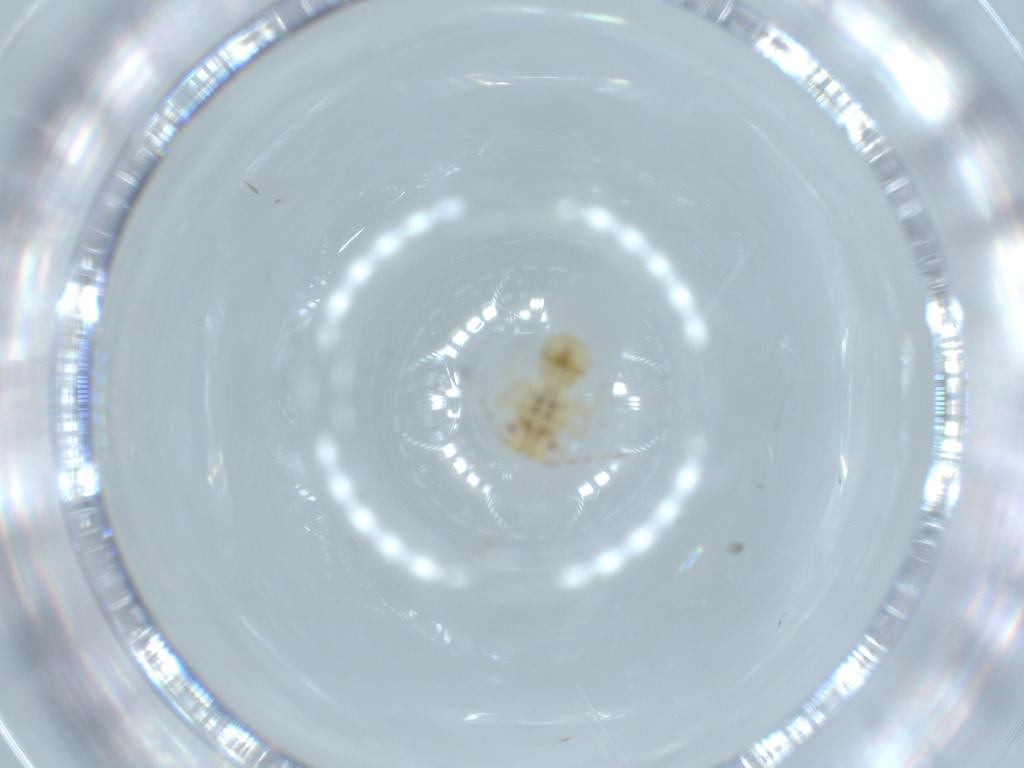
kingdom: Animalia
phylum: Arthropoda
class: Insecta
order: Hemiptera
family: Psyllidae
